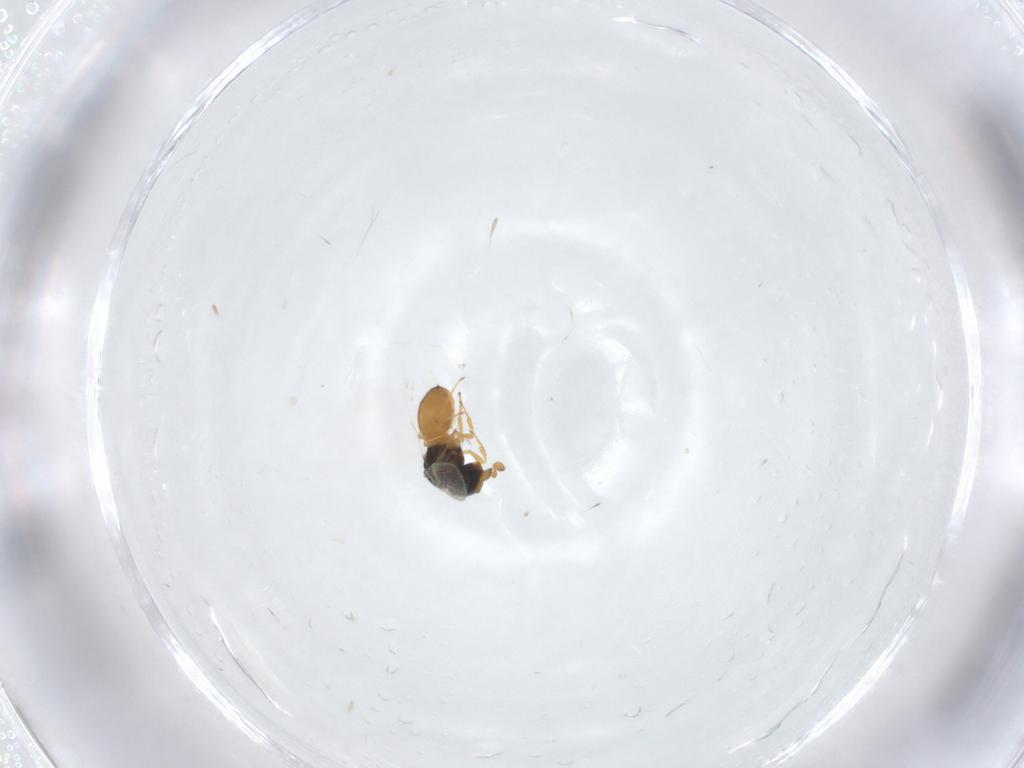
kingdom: Animalia
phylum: Arthropoda
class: Insecta
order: Hymenoptera
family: Scelionidae
